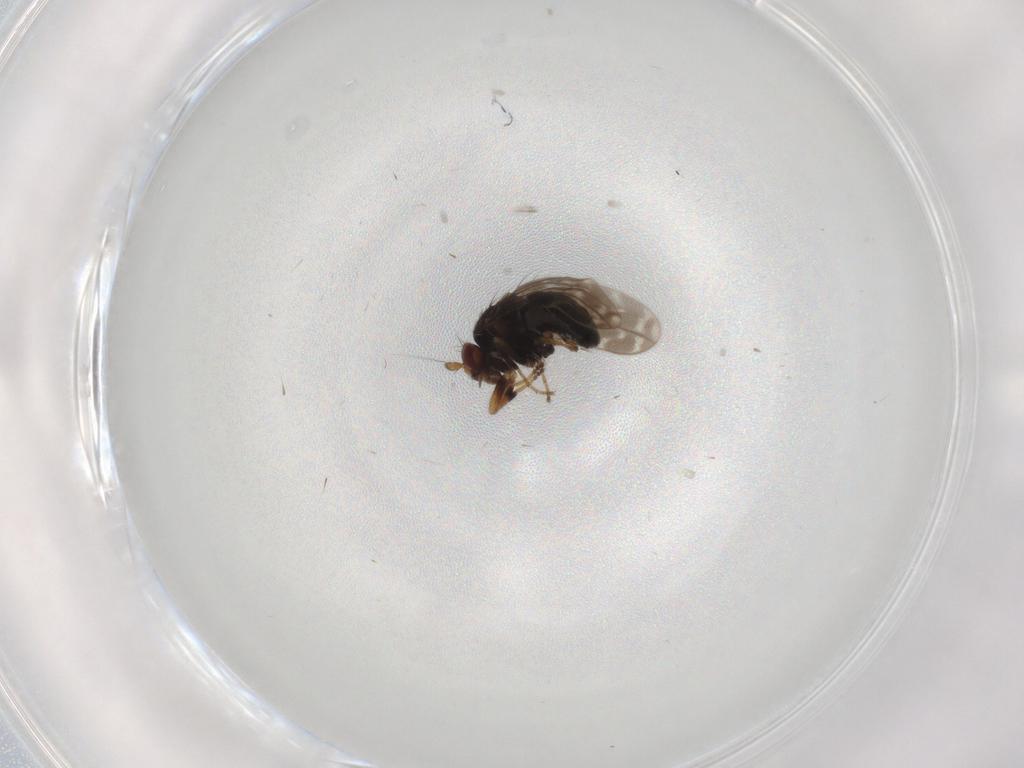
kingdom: Animalia
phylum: Arthropoda
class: Insecta
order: Diptera
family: Sphaeroceridae
